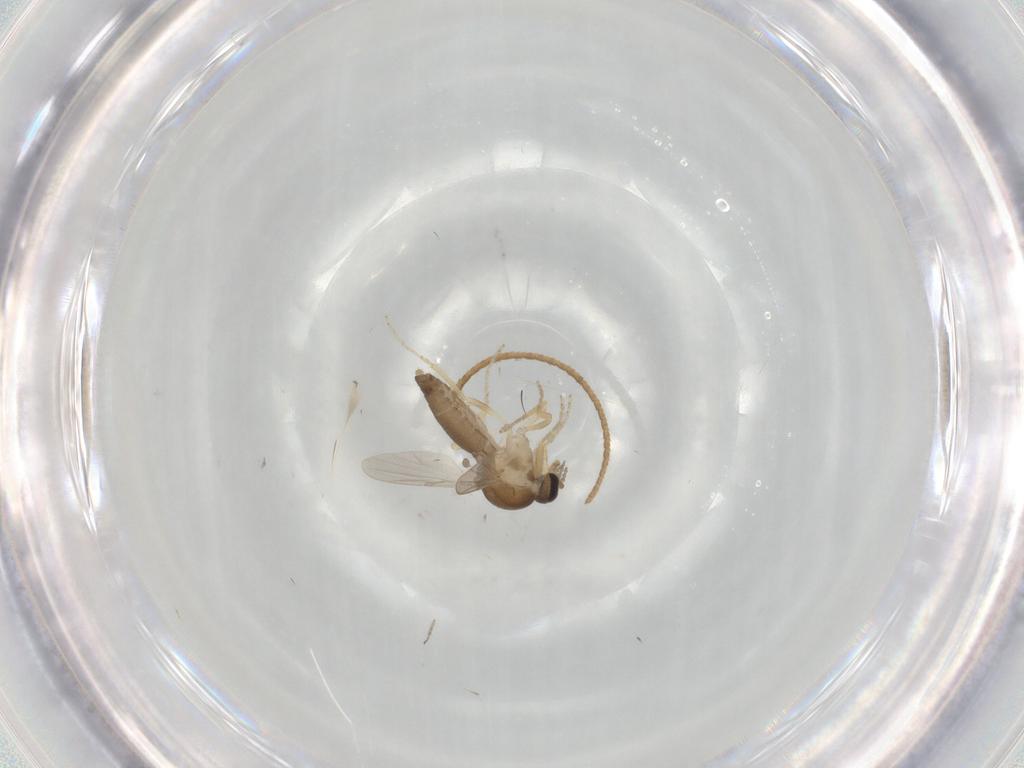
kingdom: Animalia
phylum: Arthropoda
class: Insecta
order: Diptera
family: Ceratopogonidae
